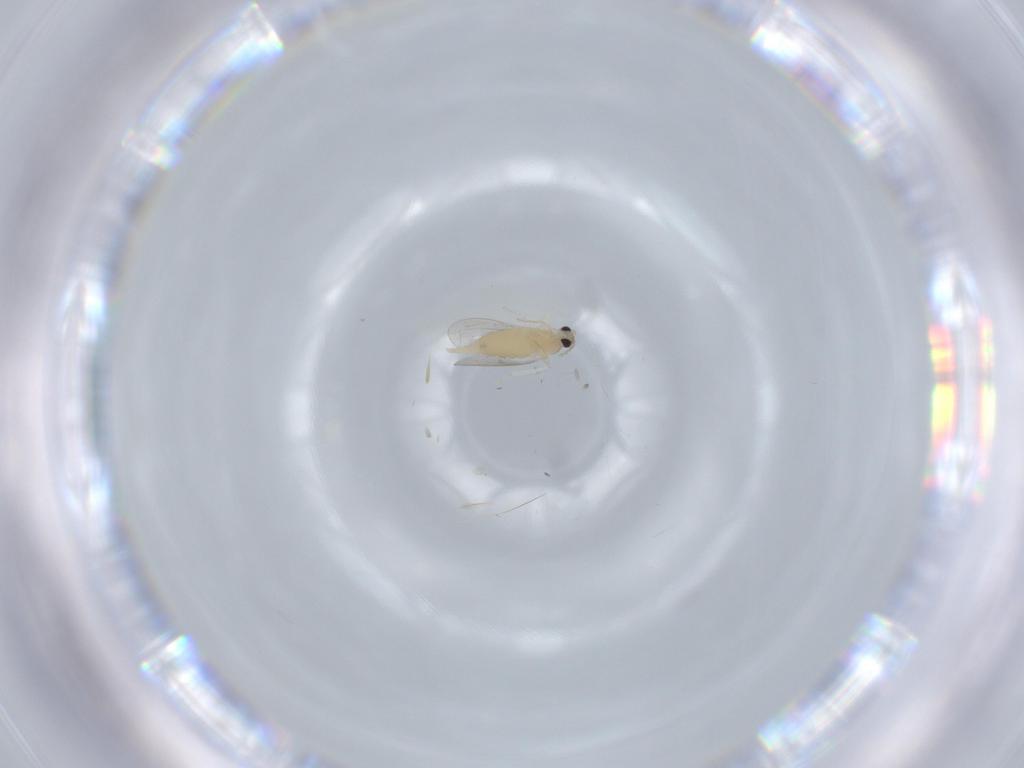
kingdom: Animalia
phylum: Arthropoda
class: Insecta
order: Diptera
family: Cecidomyiidae
